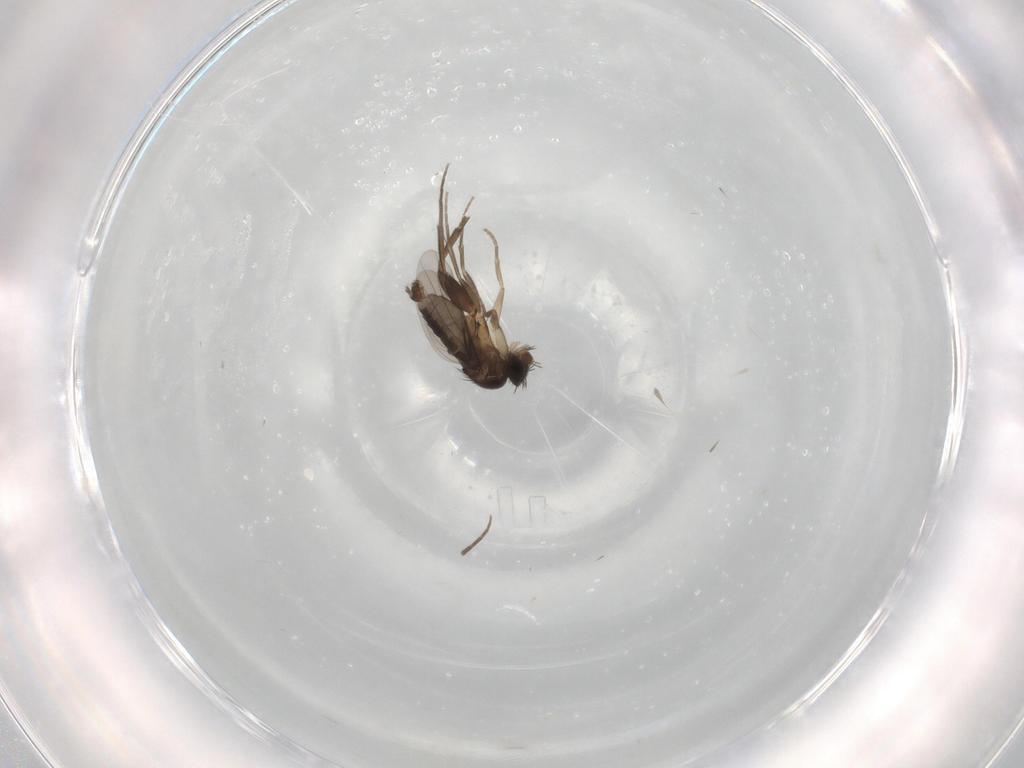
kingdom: Animalia
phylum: Arthropoda
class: Insecta
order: Diptera
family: Phoridae
